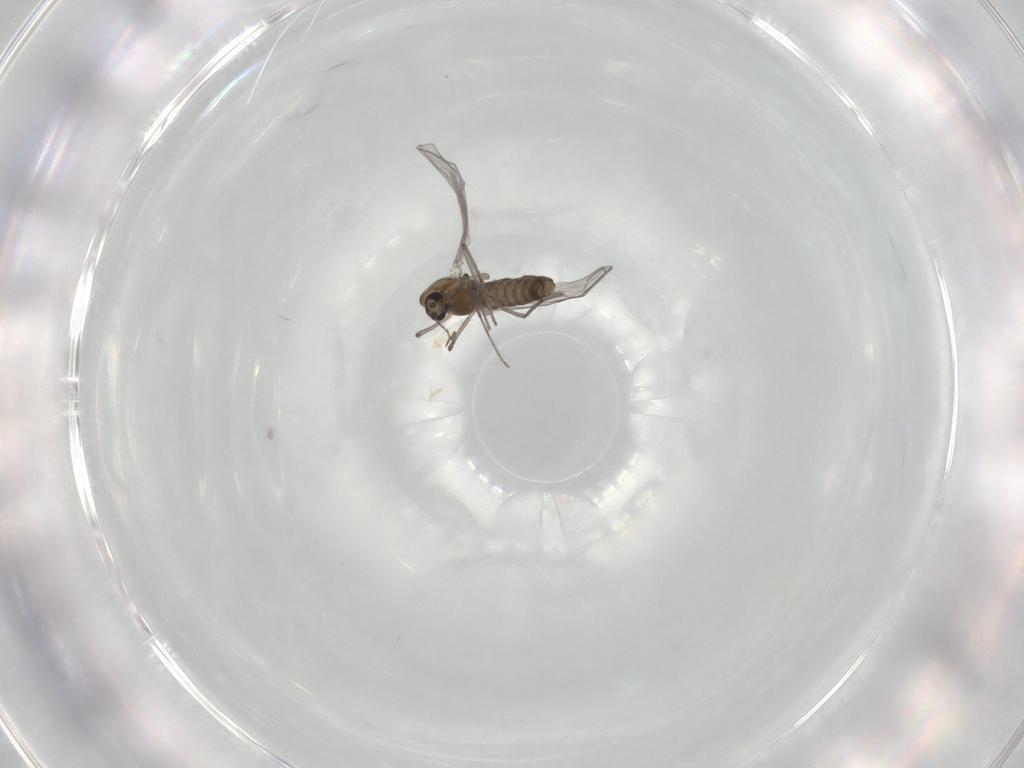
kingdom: Animalia
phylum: Arthropoda
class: Insecta
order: Diptera
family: Chironomidae
